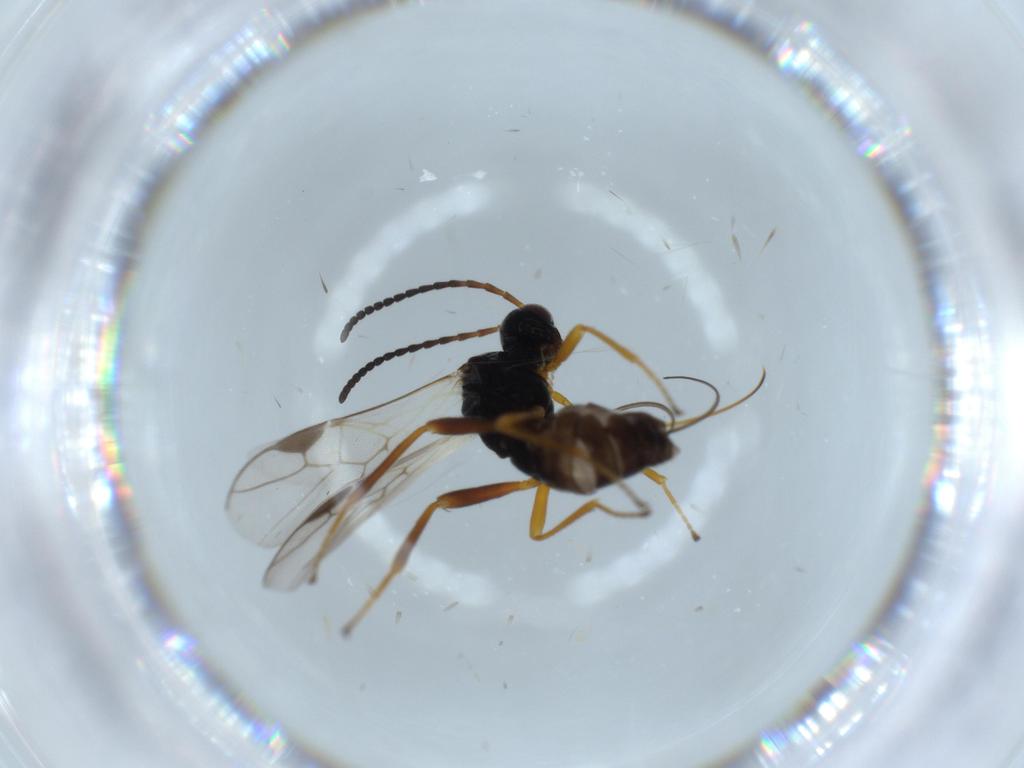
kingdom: Animalia
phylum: Arthropoda
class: Insecta
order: Hymenoptera
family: Braconidae
